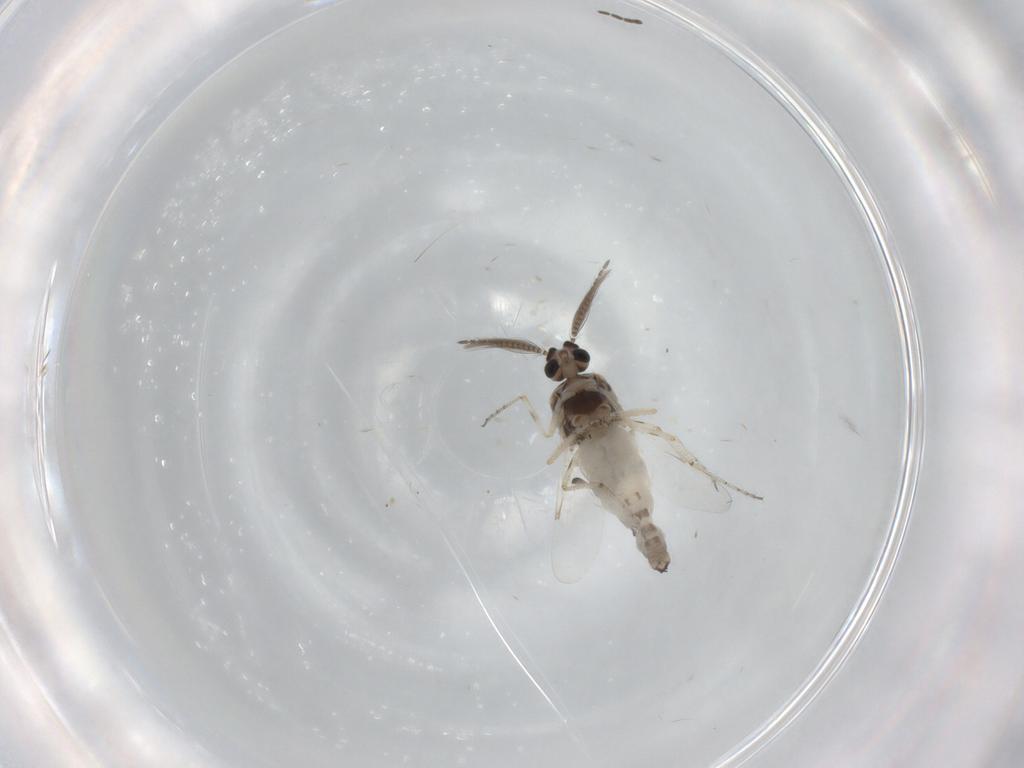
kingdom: Animalia
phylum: Arthropoda
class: Insecta
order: Diptera
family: Ceratopogonidae
